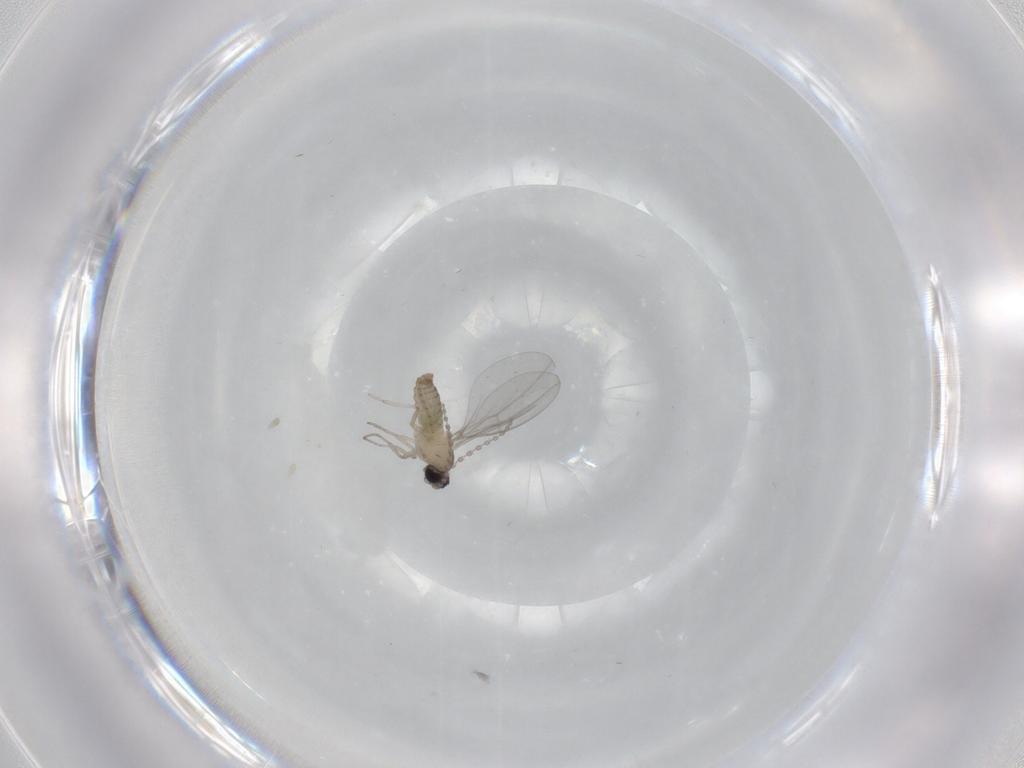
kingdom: Animalia
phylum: Arthropoda
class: Insecta
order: Diptera
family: Cecidomyiidae
